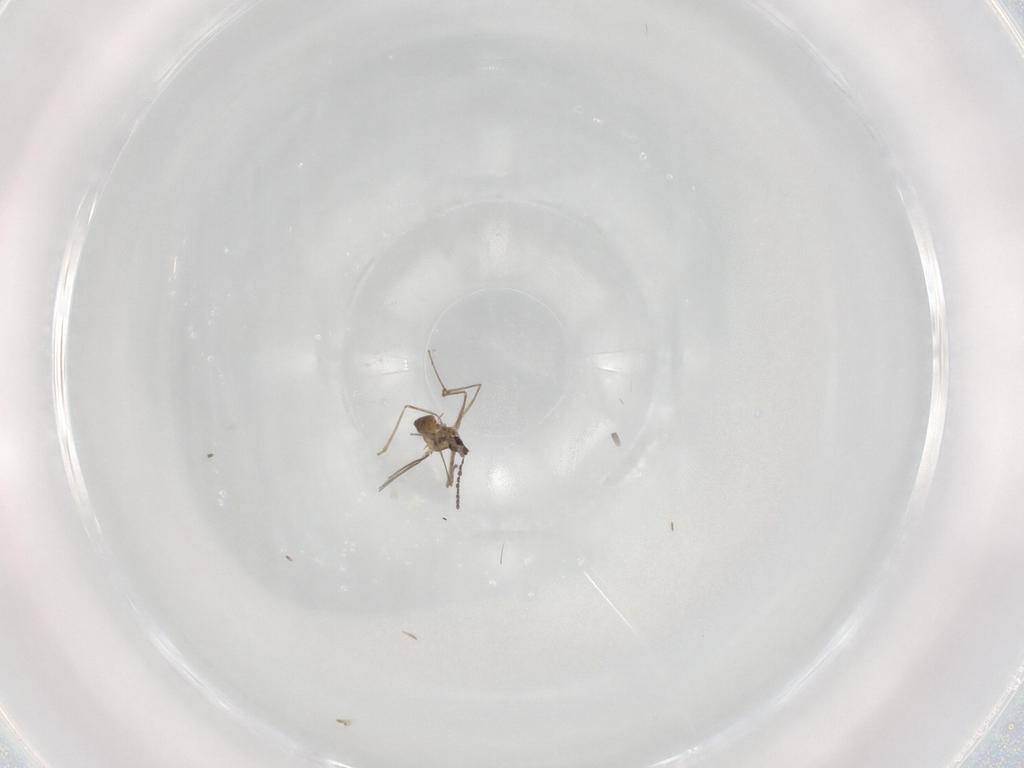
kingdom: Animalia
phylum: Arthropoda
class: Insecta
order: Diptera
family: Cecidomyiidae
